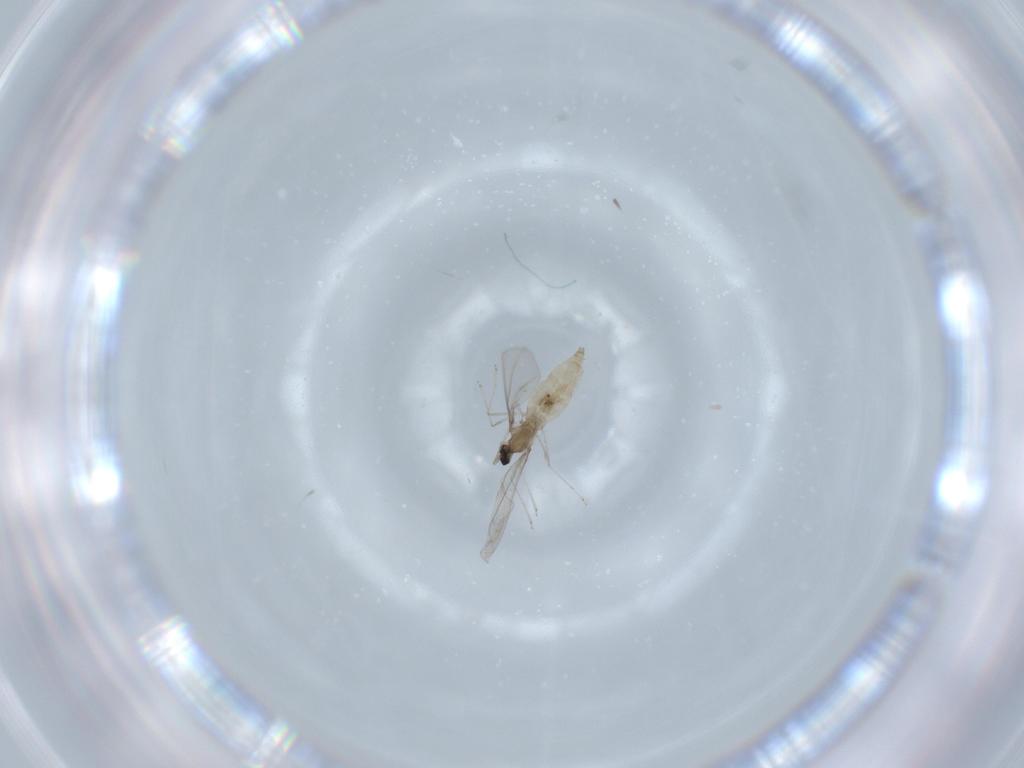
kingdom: Animalia
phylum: Arthropoda
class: Insecta
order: Diptera
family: Cecidomyiidae
